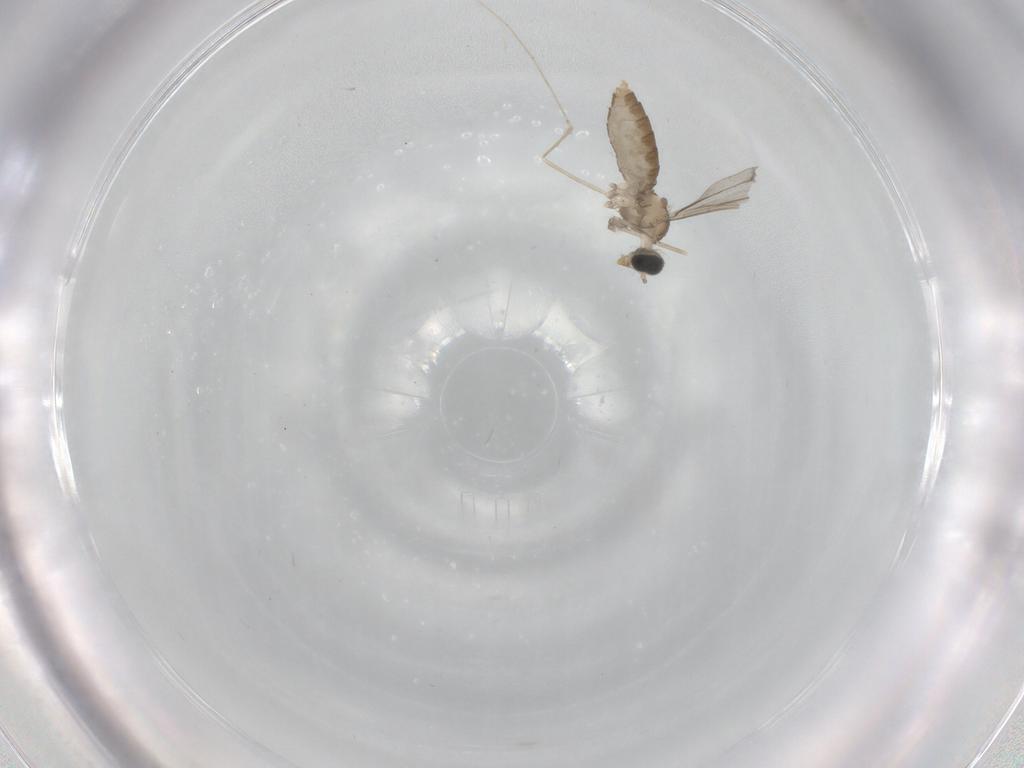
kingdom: Animalia
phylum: Arthropoda
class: Insecta
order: Diptera
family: Cecidomyiidae
